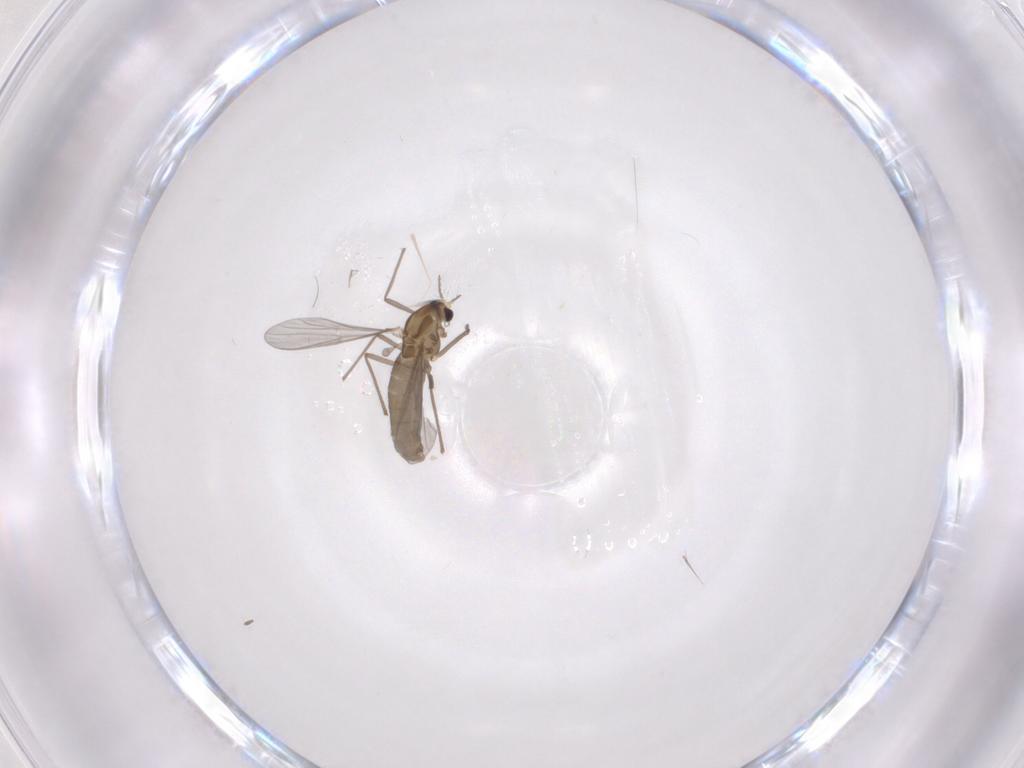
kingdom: Animalia
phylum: Arthropoda
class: Insecta
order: Diptera
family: Chironomidae
